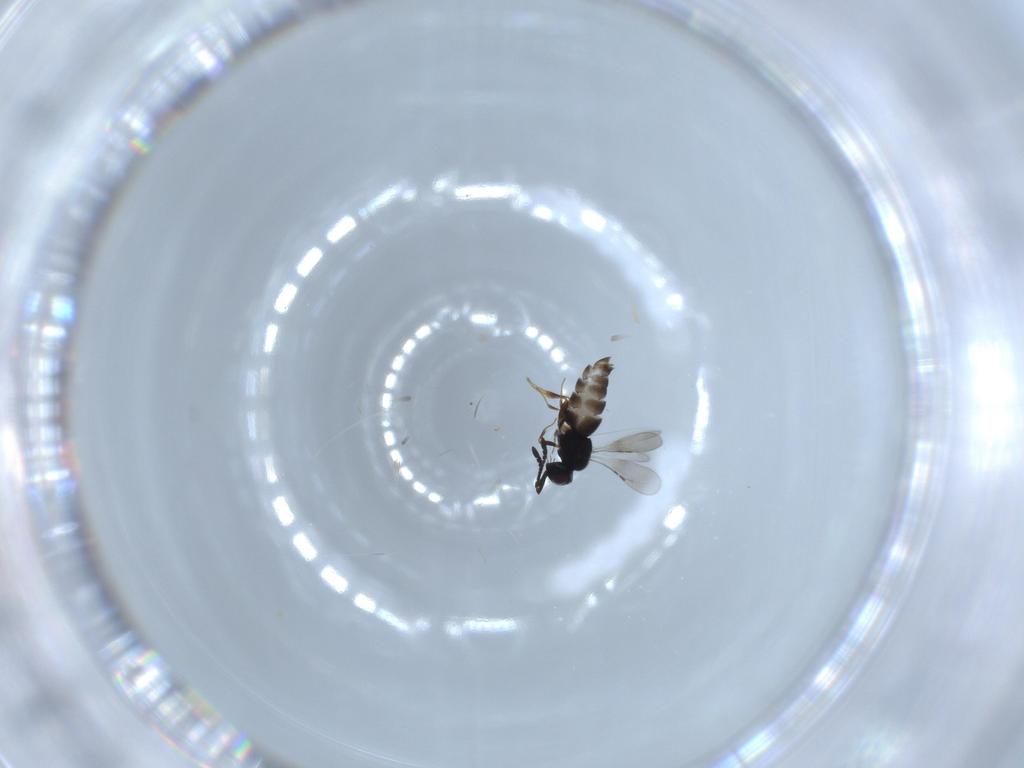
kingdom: Animalia
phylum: Arthropoda
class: Insecta
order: Hymenoptera
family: Ceraphronidae
